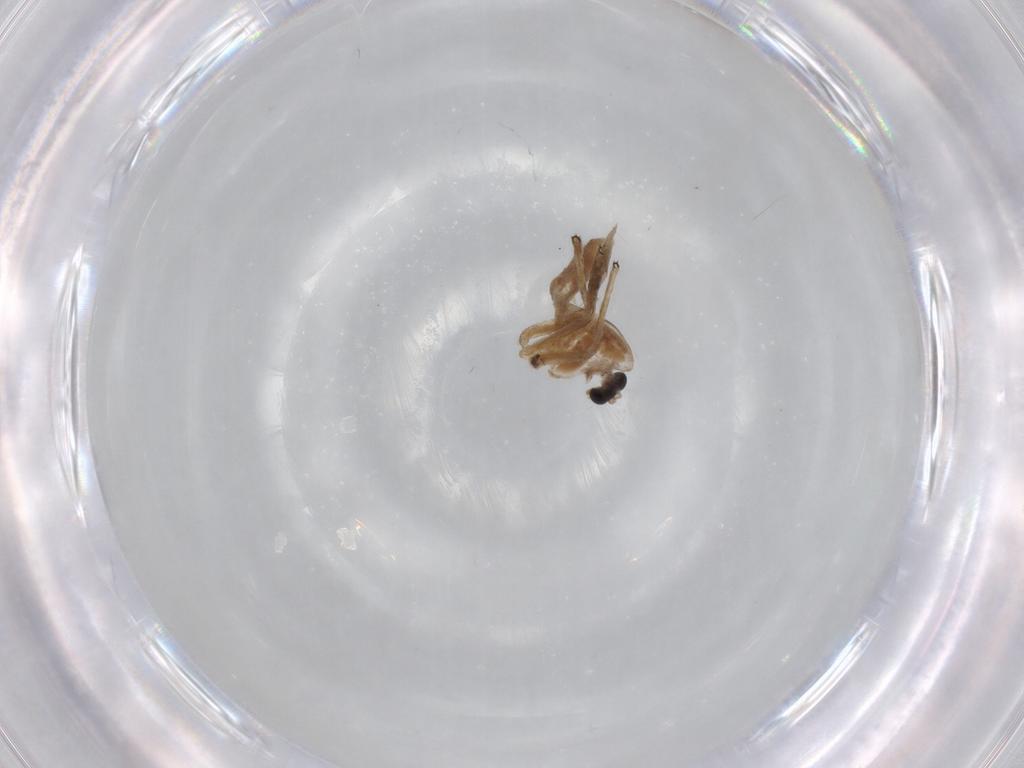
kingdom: Animalia
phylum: Arthropoda
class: Insecta
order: Diptera
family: Chironomidae
